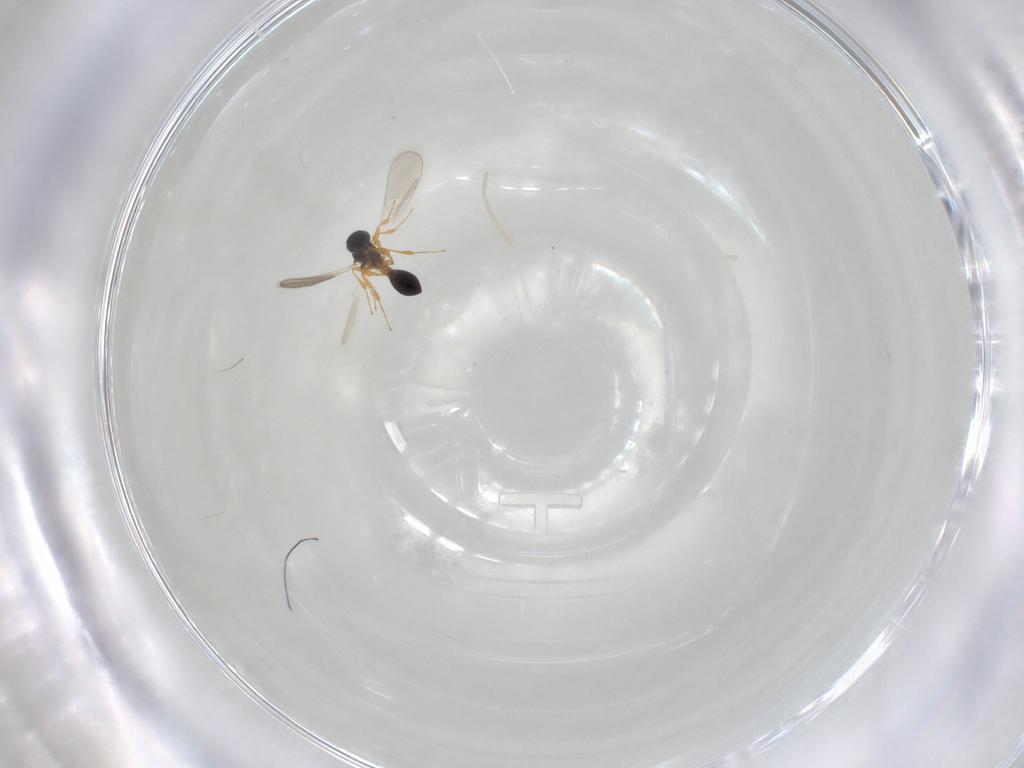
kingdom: Animalia
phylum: Arthropoda
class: Insecta
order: Hymenoptera
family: Platygastridae
